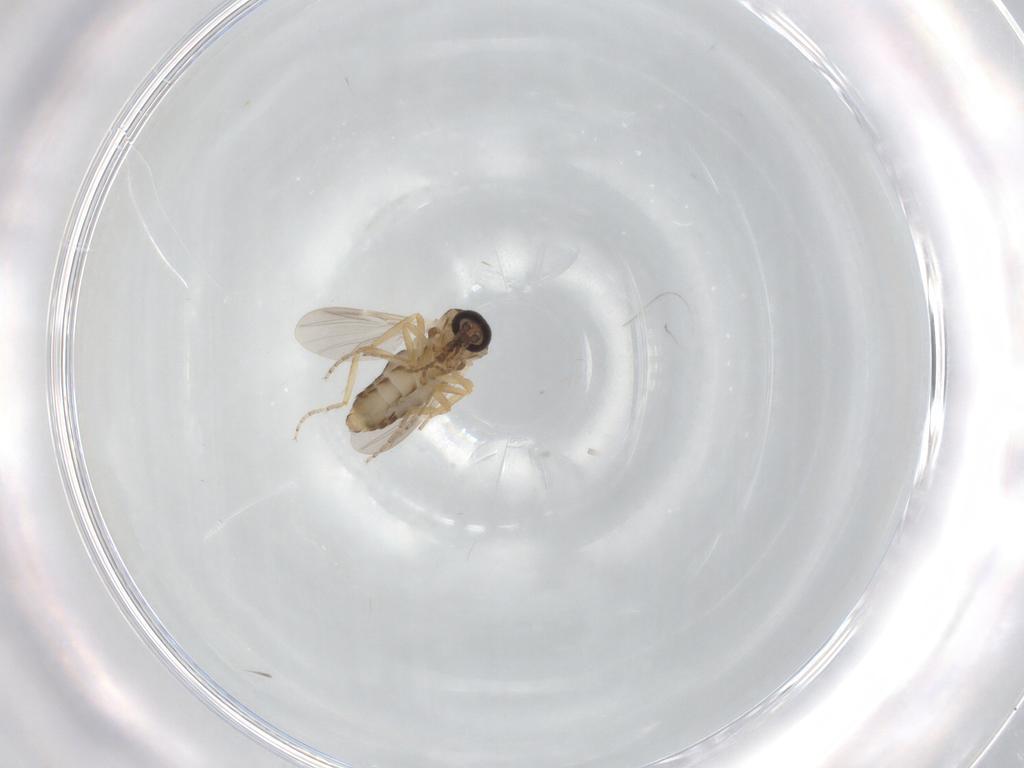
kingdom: Animalia
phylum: Arthropoda
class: Insecta
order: Diptera
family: Ceratopogonidae
